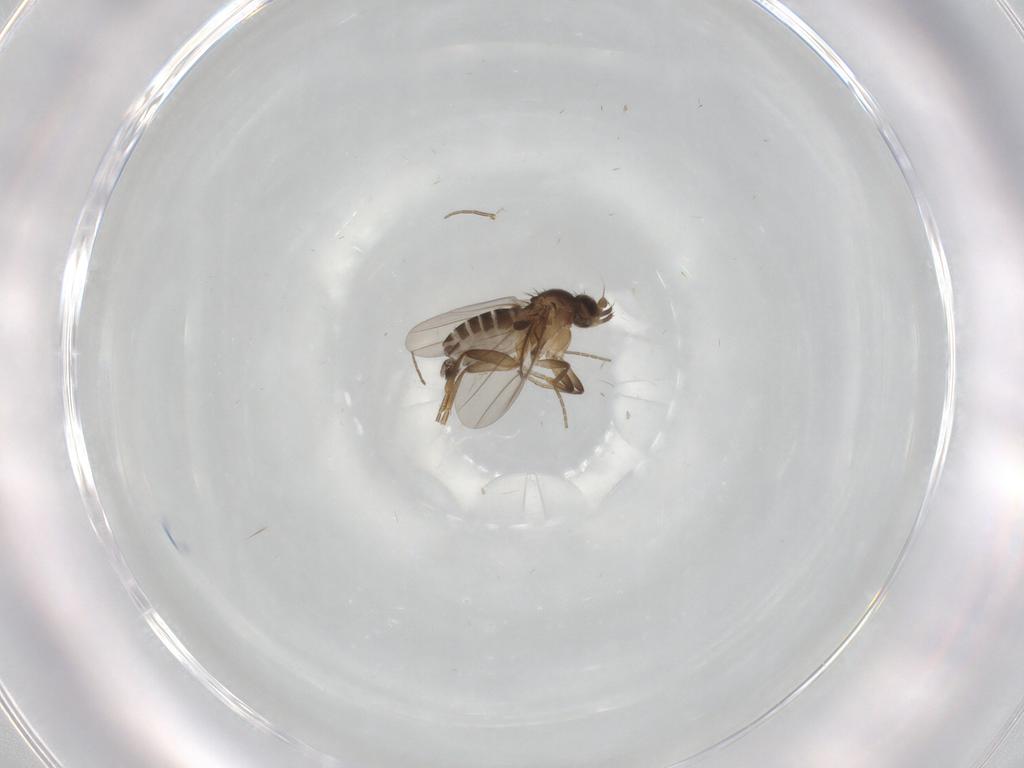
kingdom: Animalia
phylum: Arthropoda
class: Insecta
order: Diptera
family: Phoridae
